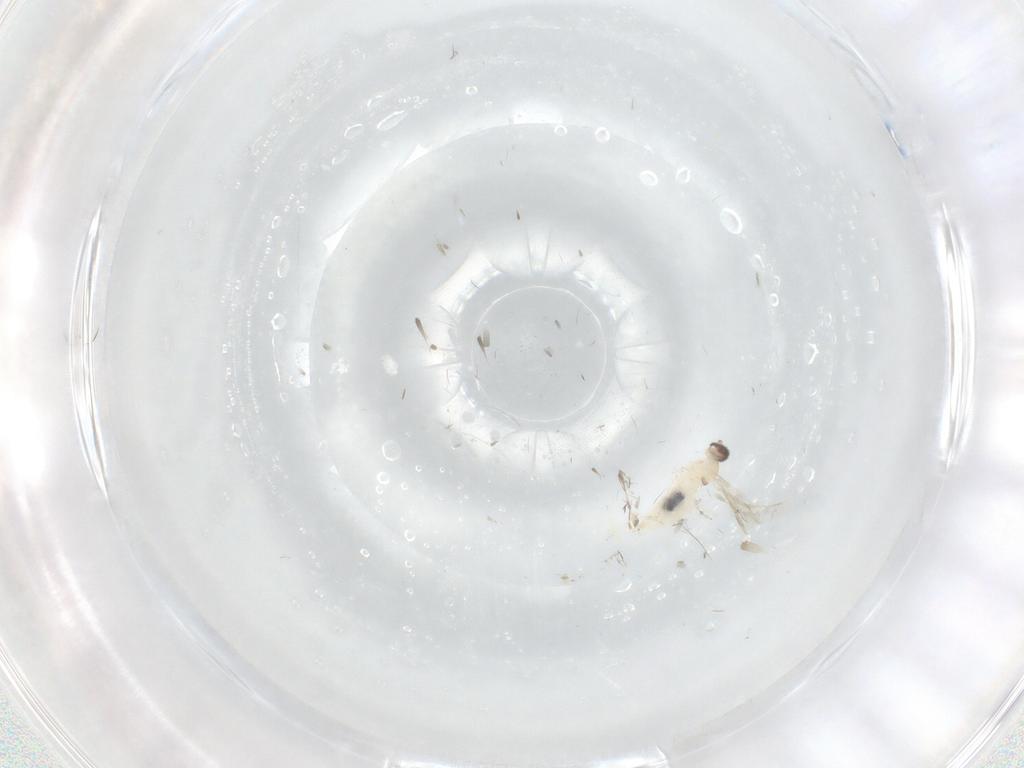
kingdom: Animalia
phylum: Arthropoda
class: Insecta
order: Diptera
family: Cecidomyiidae
